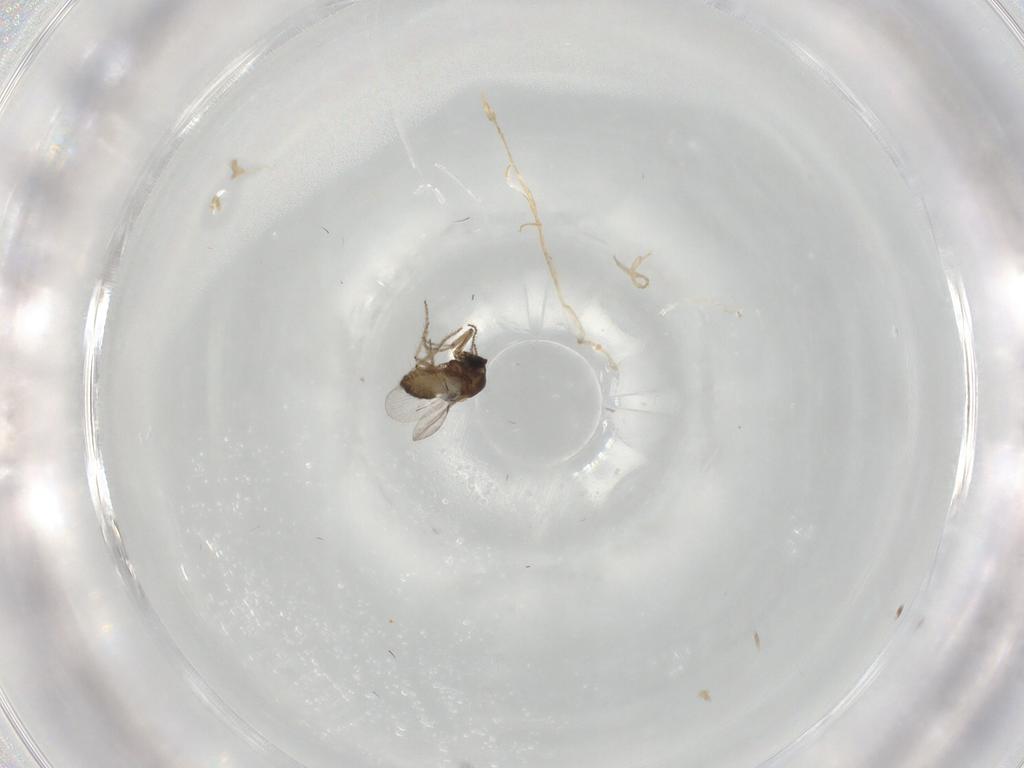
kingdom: Animalia
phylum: Arthropoda
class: Insecta
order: Diptera
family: Ceratopogonidae
